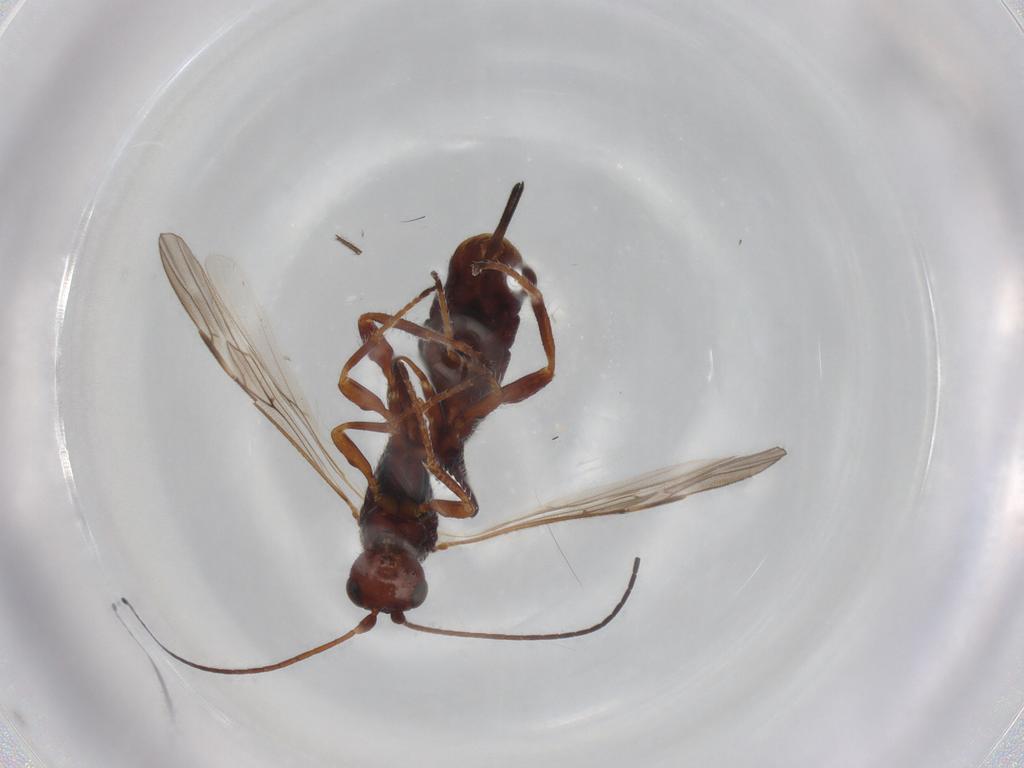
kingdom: Animalia
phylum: Arthropoda
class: Insecta
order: Hymenoptera
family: Braconidae
